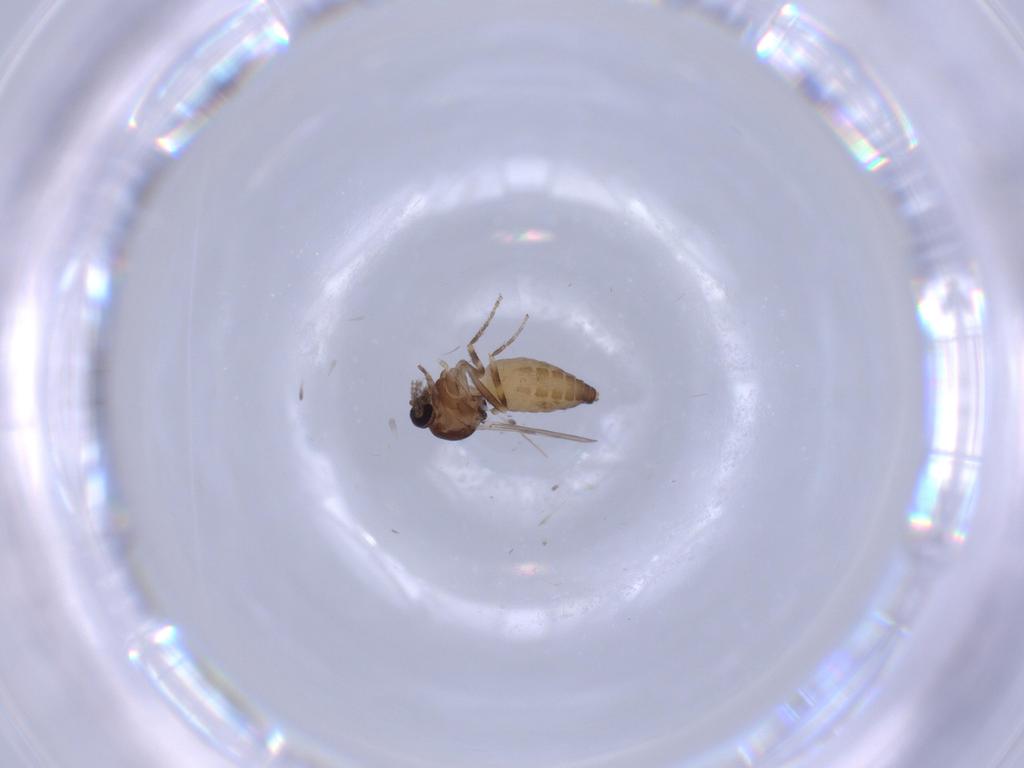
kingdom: Animalia
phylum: Arthropoda
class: Insecta
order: Diptera
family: Ceratopogonidae
